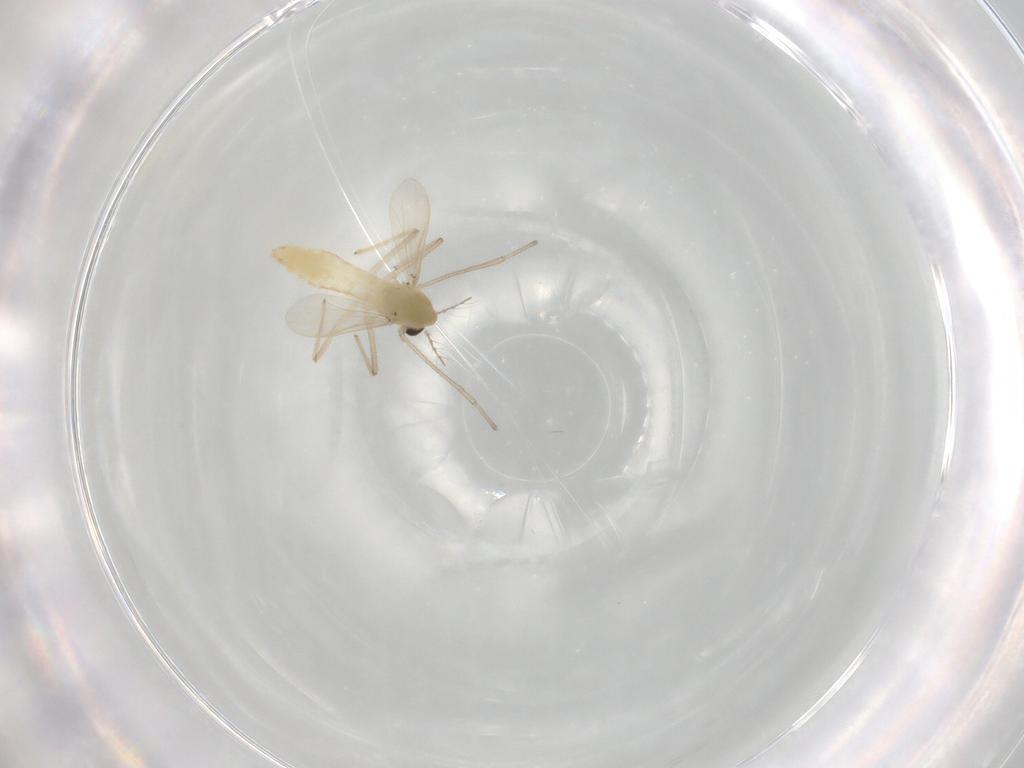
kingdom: Animalia
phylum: Arthropoda
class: Insecta
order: Diptera
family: Chironomidae
